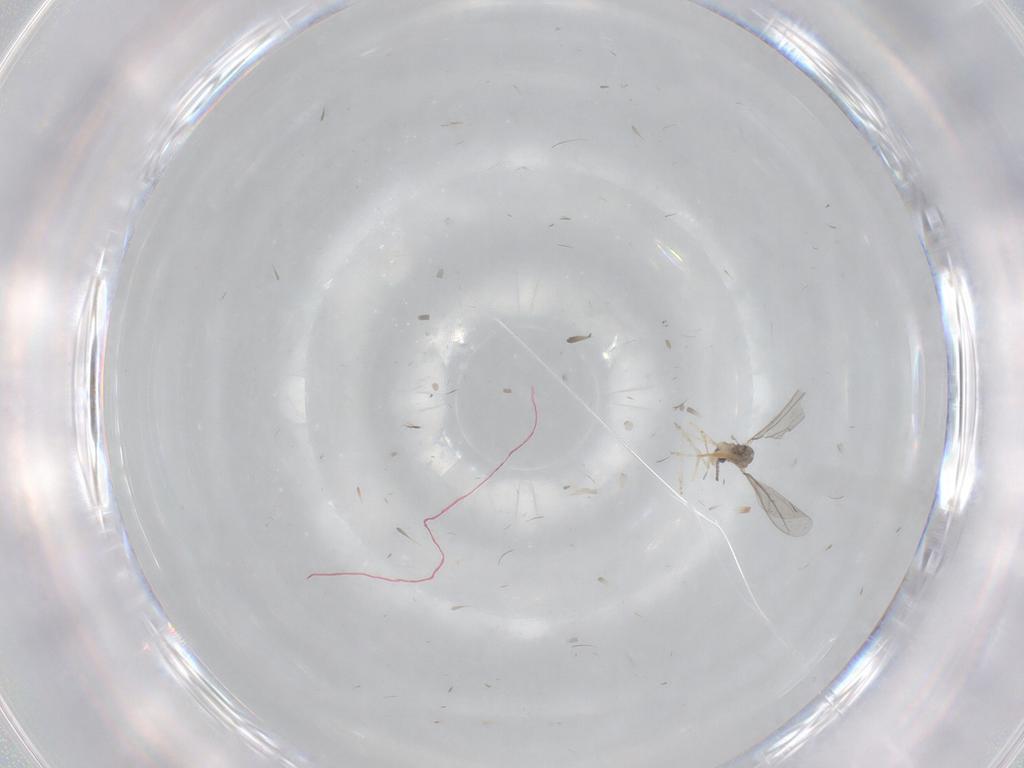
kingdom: Animalia
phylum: Arthropoda
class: Insecta
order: Diptera
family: Cecidomyiidae
